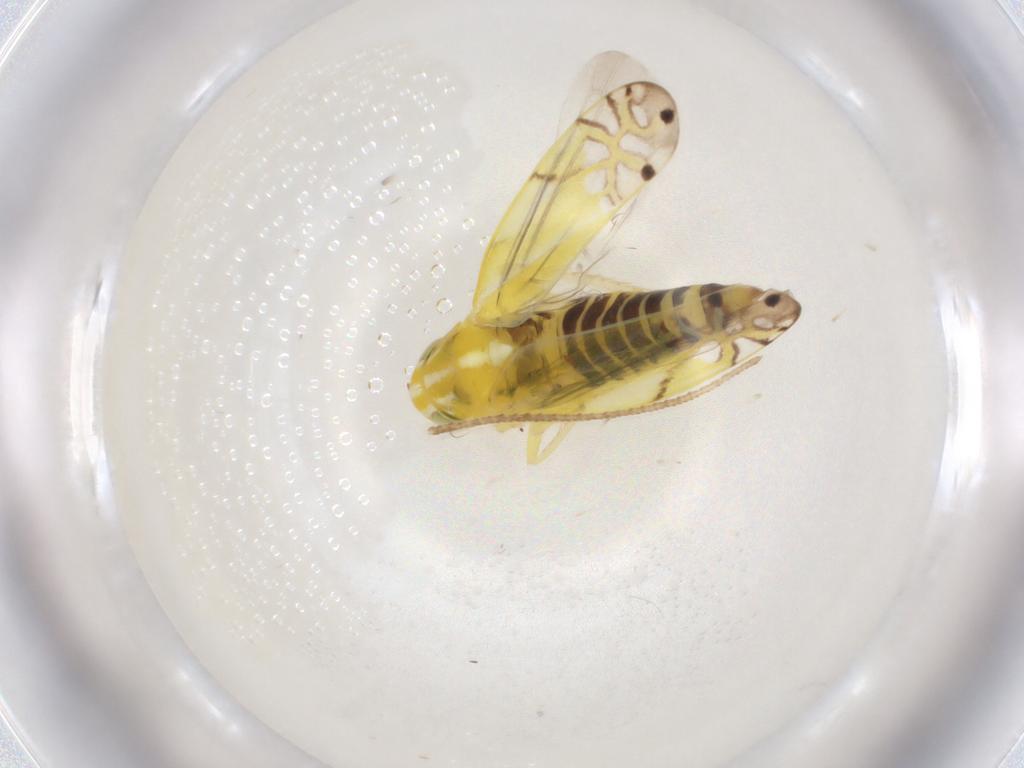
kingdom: Animalia
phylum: Arthropoda
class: Insecta
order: Hemiptera
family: Cicadellidae
